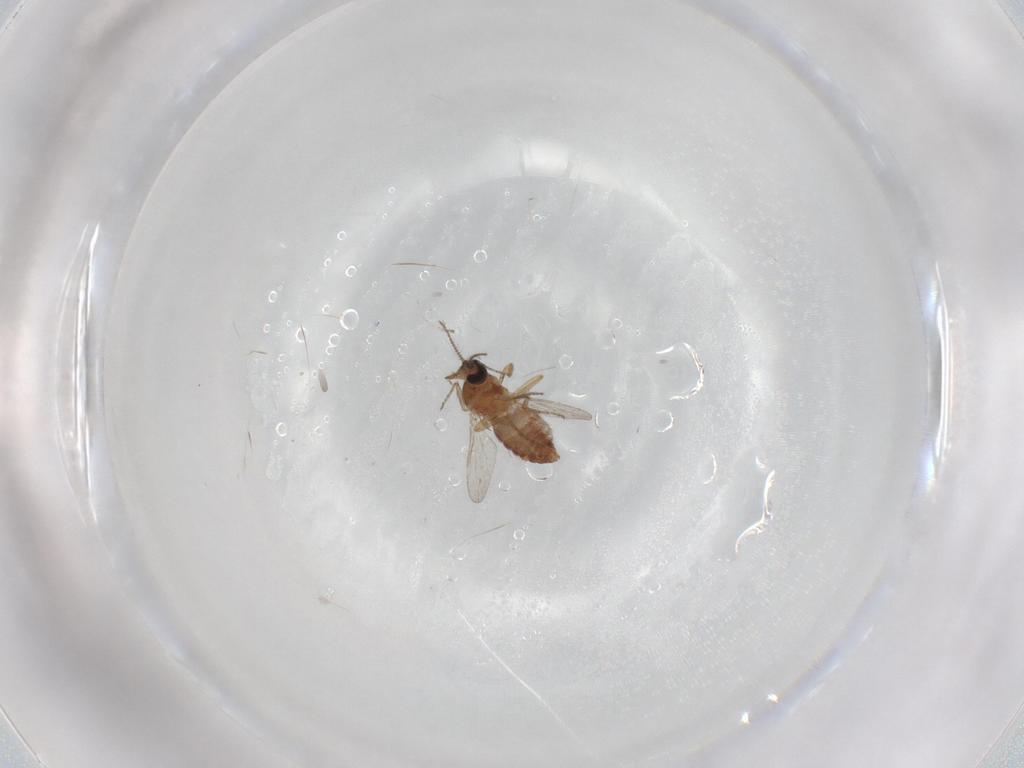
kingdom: Animalia
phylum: Arthropoda
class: Insecta
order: Diptera
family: Ceratopogonidae
